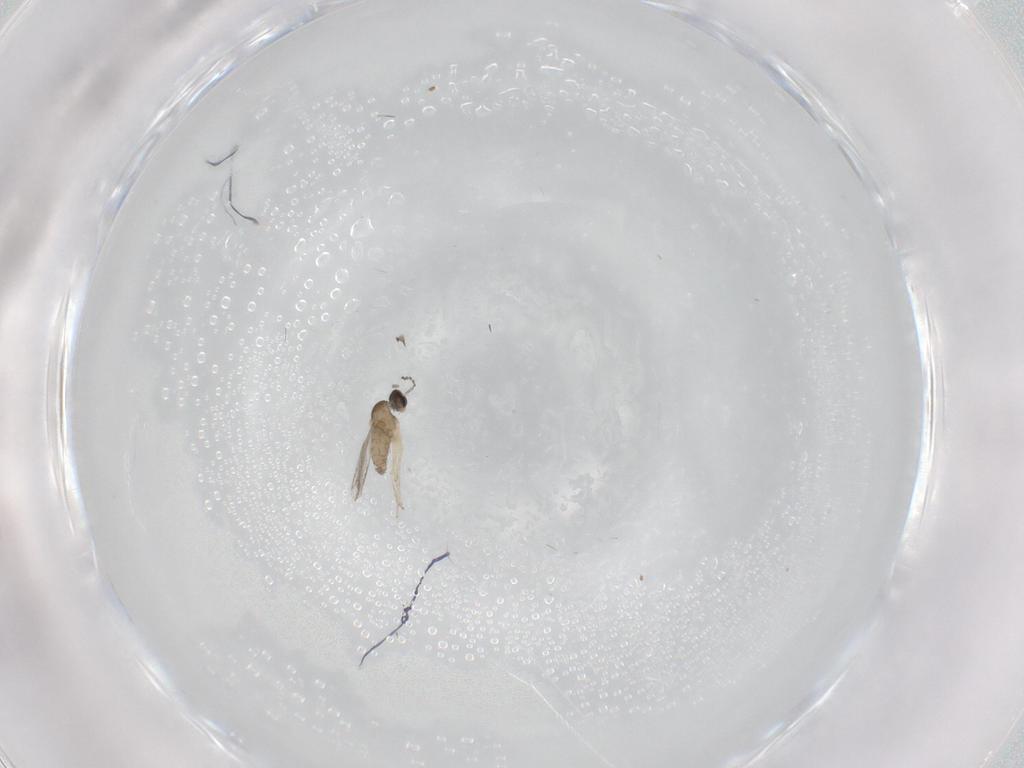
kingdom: Animalia
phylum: Arthropoda
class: Insecta
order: Diptera
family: Cecidomyiidae
